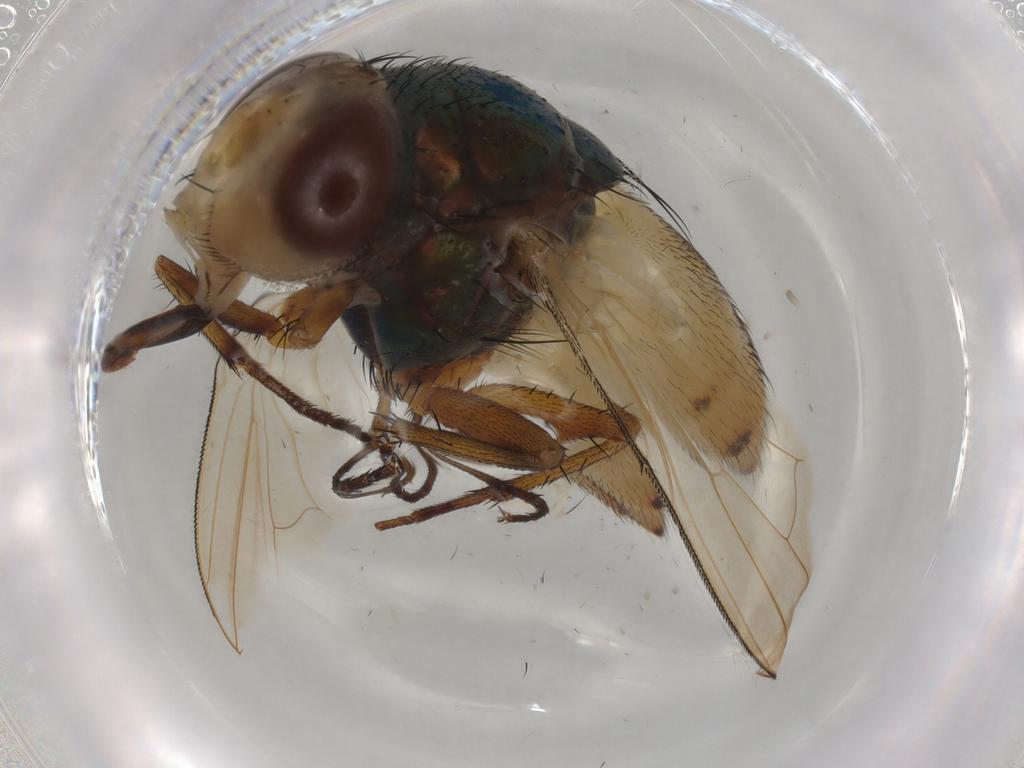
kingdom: Animalia
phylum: Arthropoda
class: Insecta
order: Diptera
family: Calliphoridae
